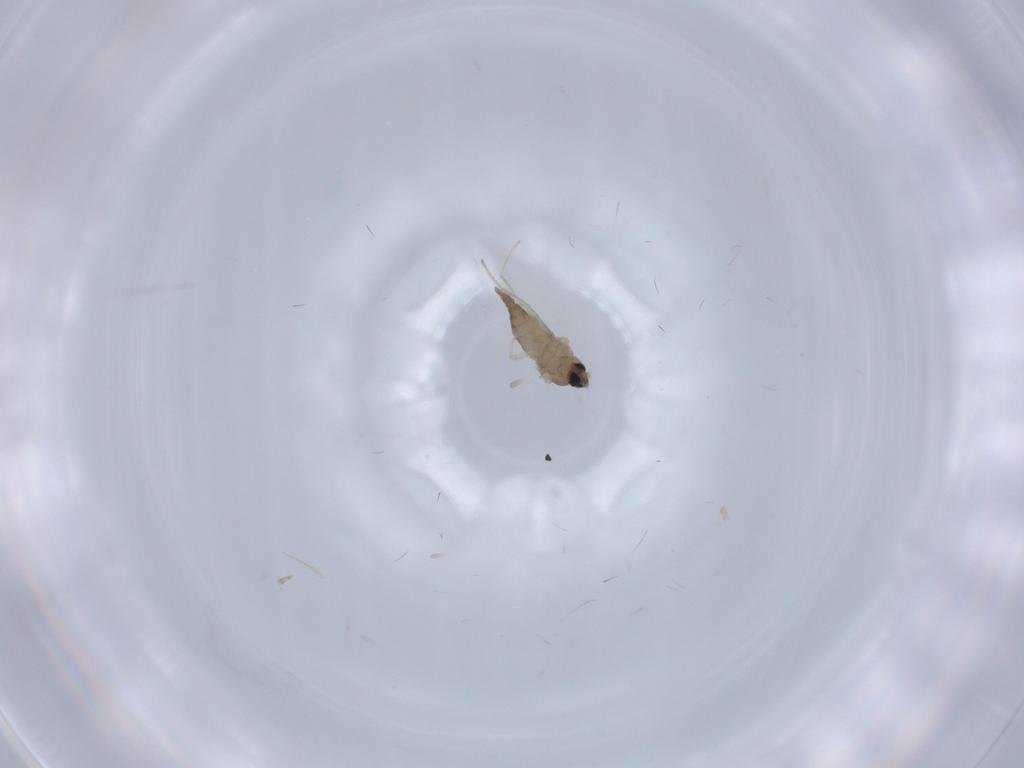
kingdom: Animalia
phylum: Arthropoda
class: Insecta
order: Diptera
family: Cecidomyiidae
